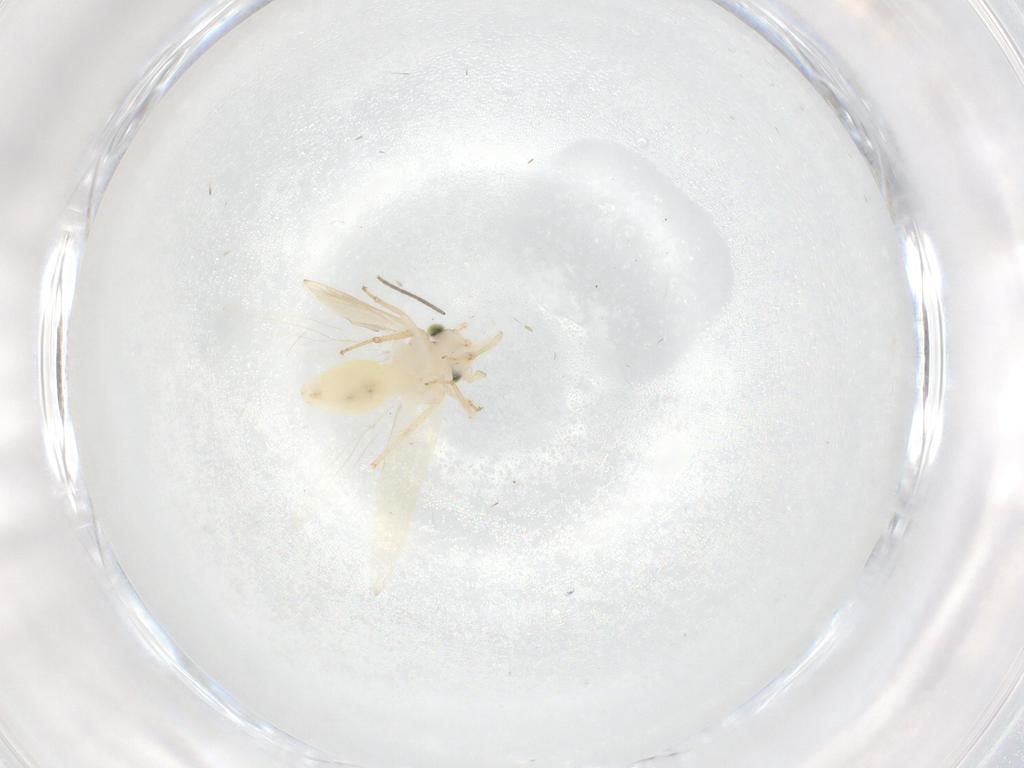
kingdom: Animalia
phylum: Arthropoda
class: Insecta
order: Psocodea
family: Lepidopsocidae
